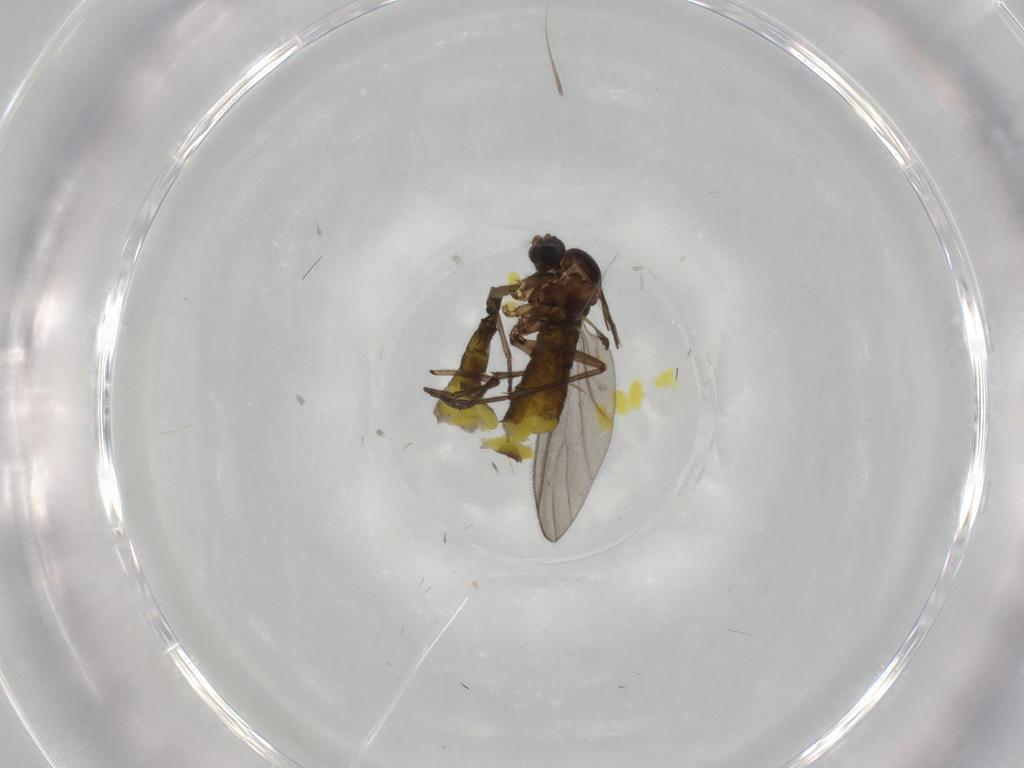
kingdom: Animalia
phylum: Arthropoda
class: Insecta
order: Diptera
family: Sciaridae
